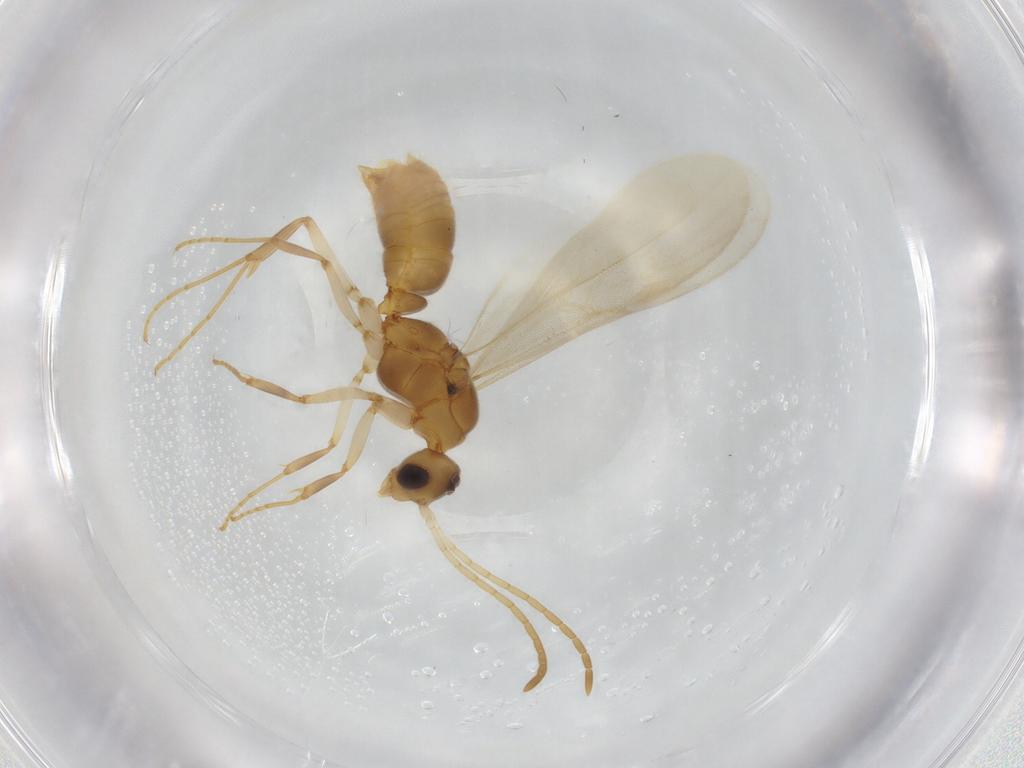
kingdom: Animalia
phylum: Arthropoda
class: Insecta
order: Hymenoptera
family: Formicidae
